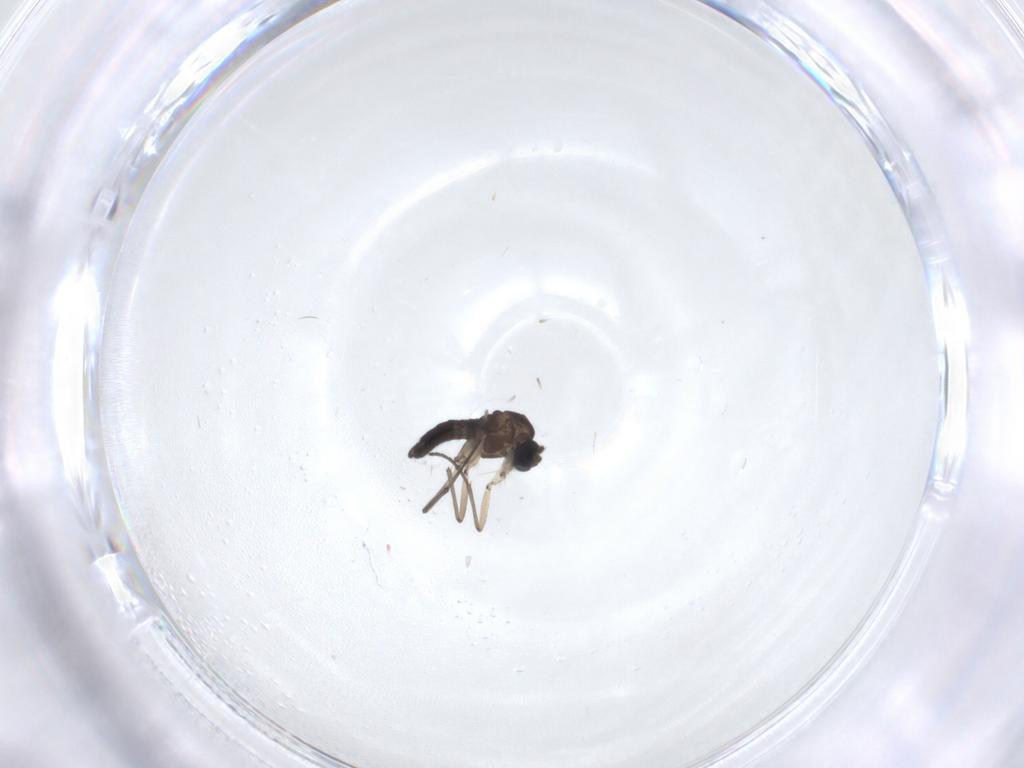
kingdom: Animalia
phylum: Arthropoda
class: Insecta
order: Diptera
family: Sciaridae
